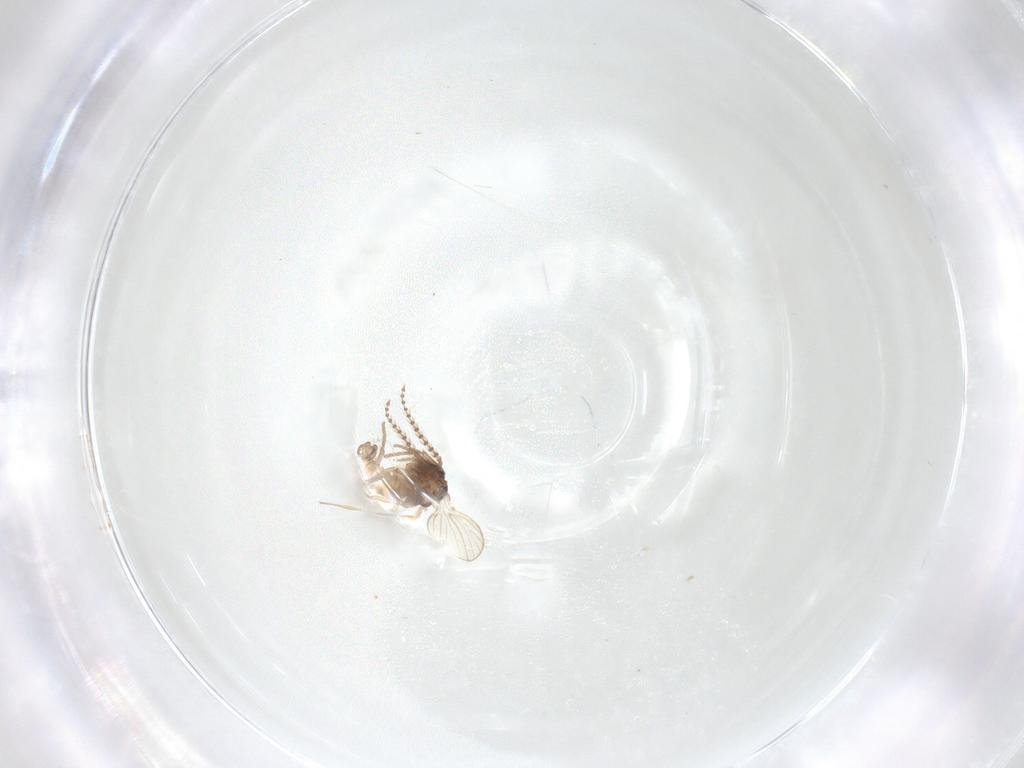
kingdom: Animalia
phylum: Arthropoda
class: Insecta
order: Diptera
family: Psychodidae
